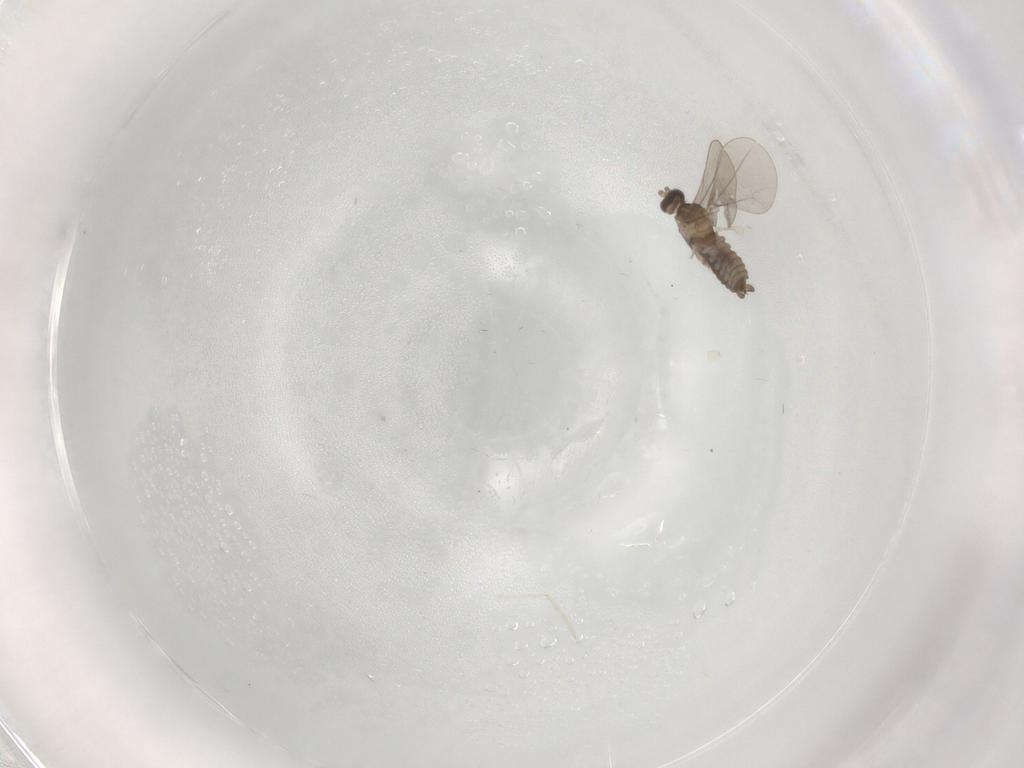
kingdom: Animalia
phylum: Arthropoda
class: Insecta
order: Diptera
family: Cecidomyiidae
